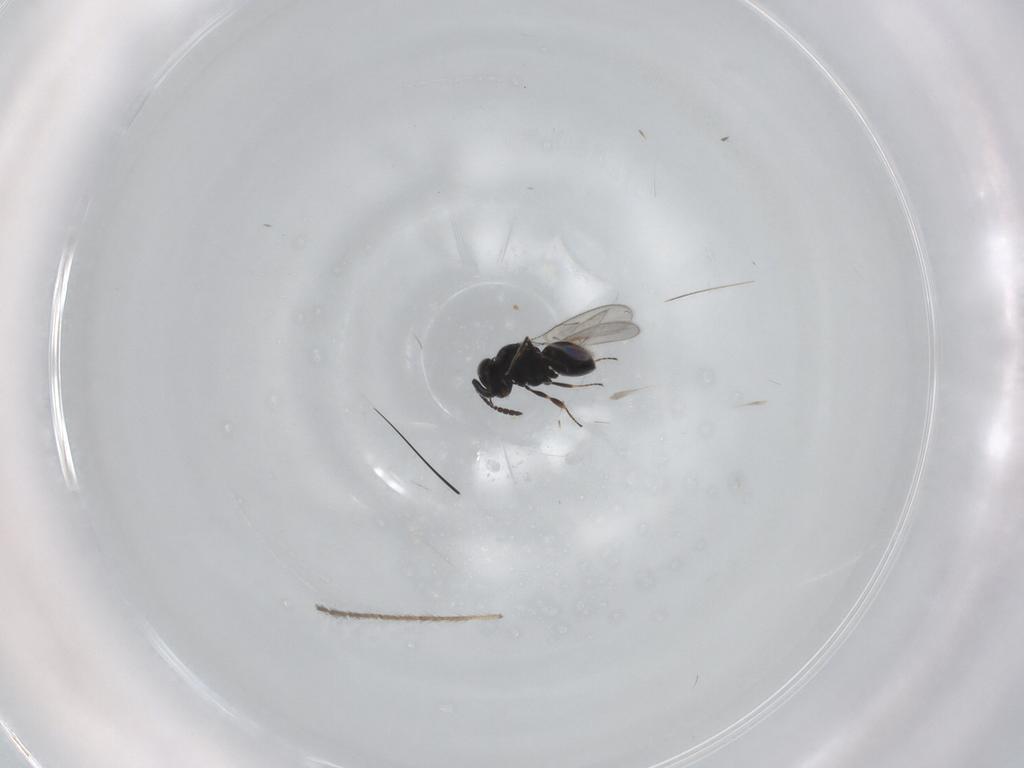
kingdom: Animalia
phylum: Arthropoda
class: Insecta
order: Hymenoptera
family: Scelionidae
